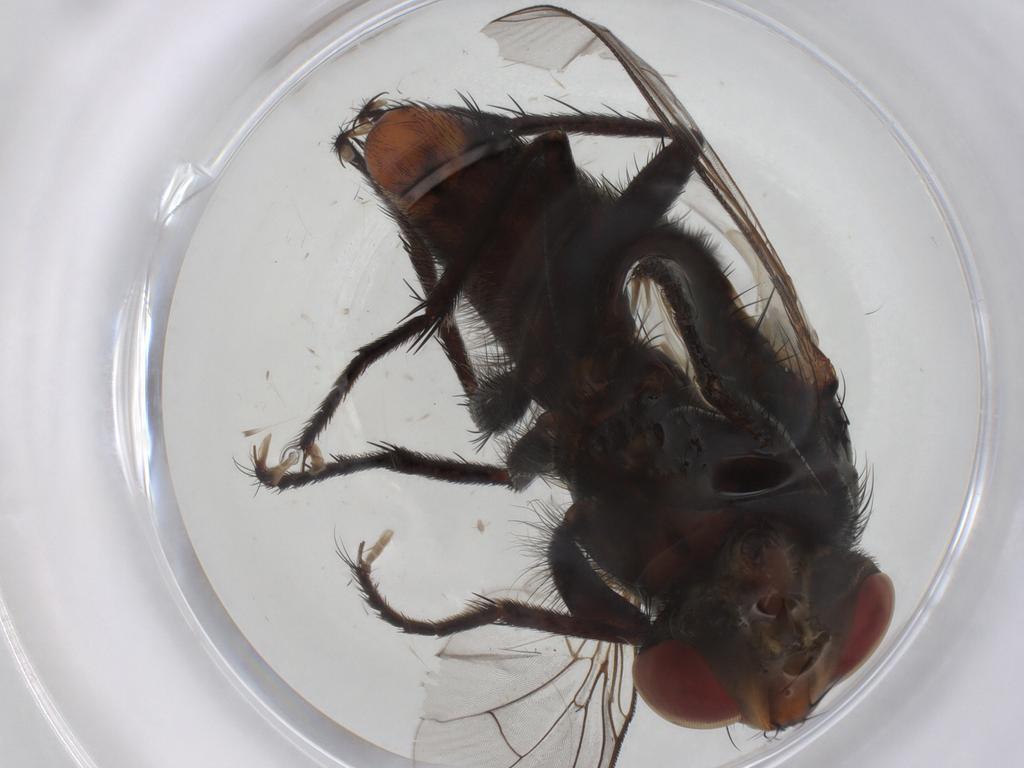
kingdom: Animalia
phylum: Arthropoda
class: Insecta
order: Diptera
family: Sarcophagidae
